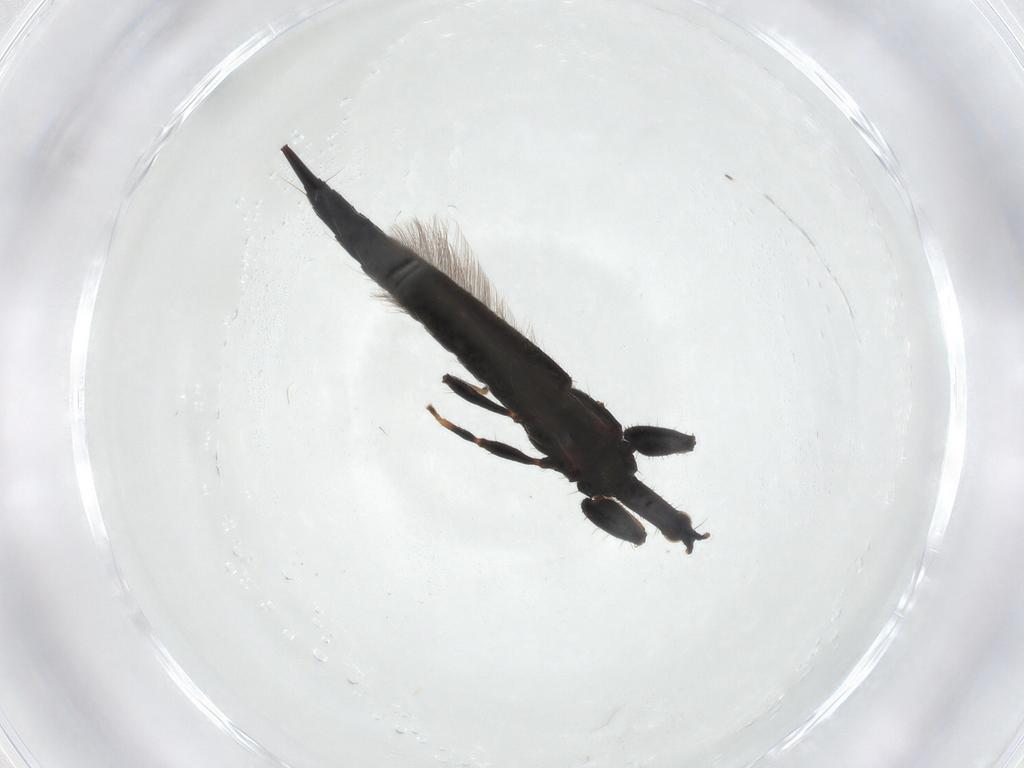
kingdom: Animalia
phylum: Arthropoda
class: Insecta
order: Thysanoptera
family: Phlaeothripidae
